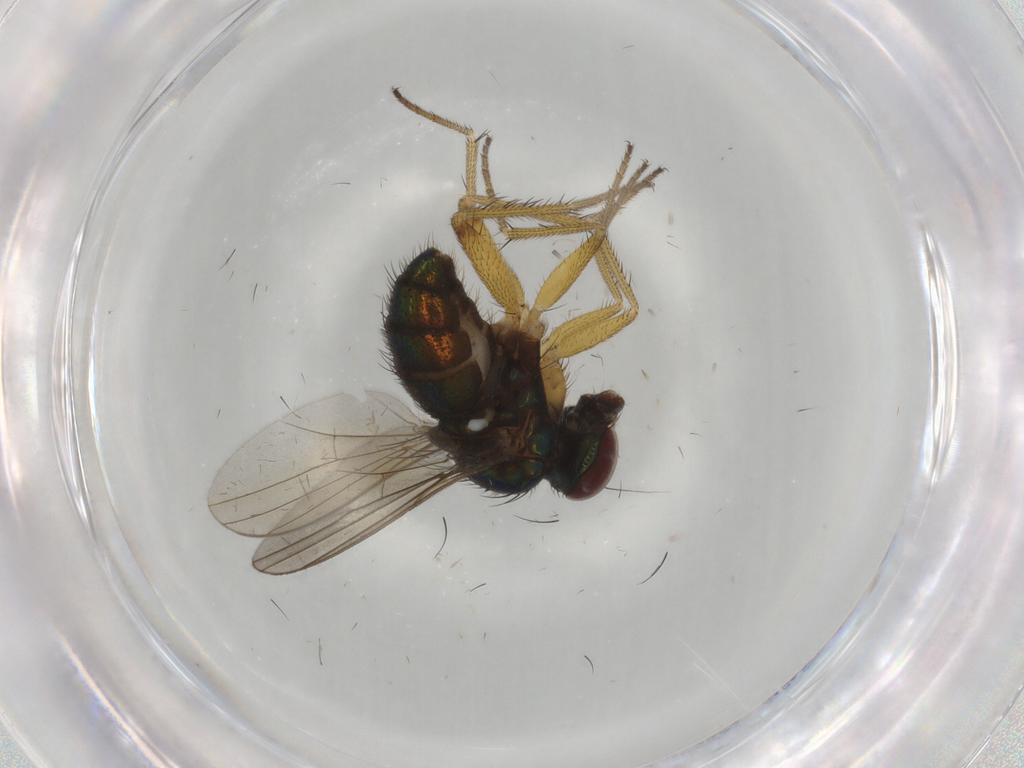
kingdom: Animalia
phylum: Arthropoda
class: Insecta
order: Diptera
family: Dolichopodidae
